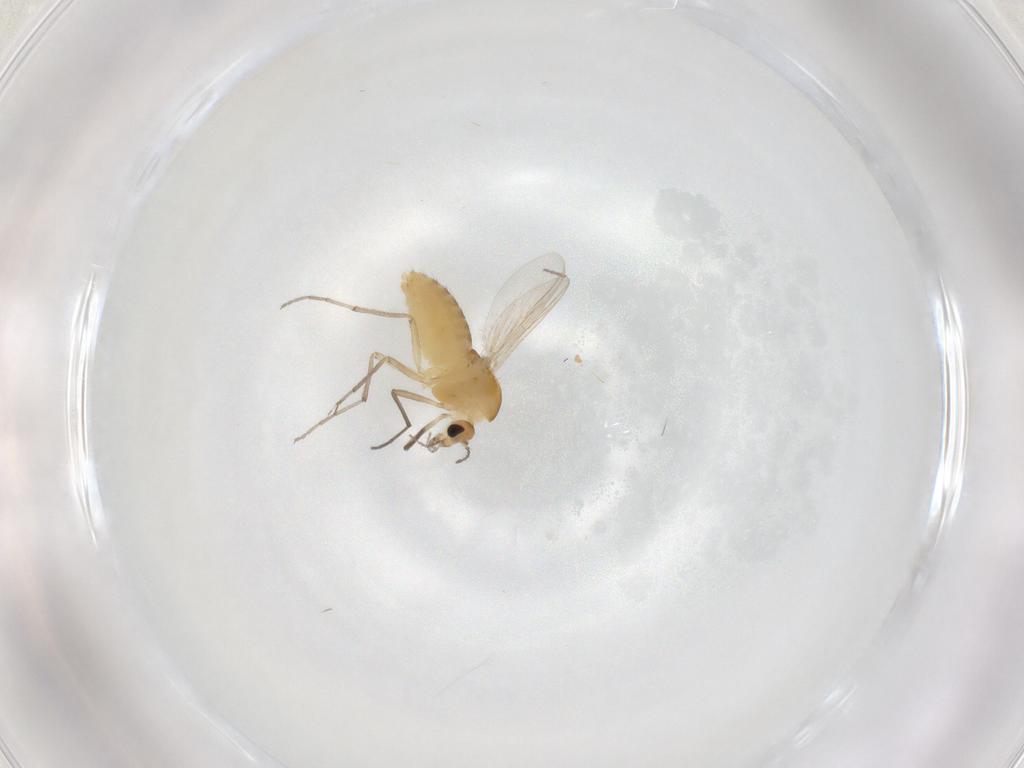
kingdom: Animalia
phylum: Arthropoda
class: Insecta
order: Diptera
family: Chironomidae
